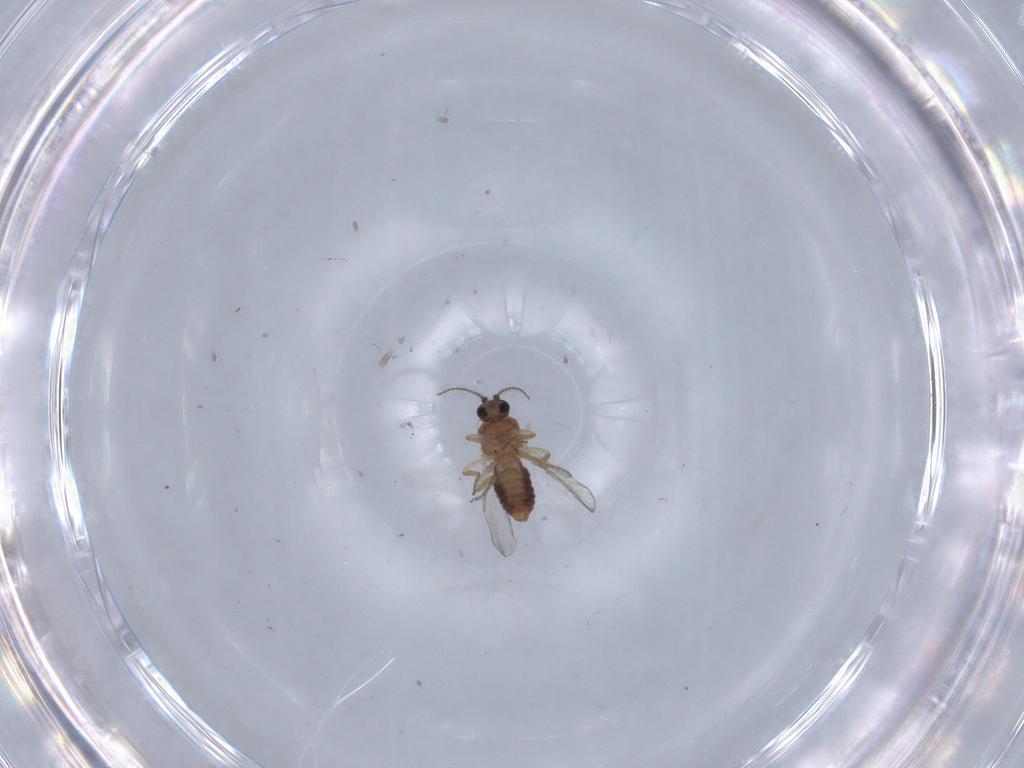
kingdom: Animalia
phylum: Arthropoda
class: Insecta
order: Diptera
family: Ceratopogonidae
